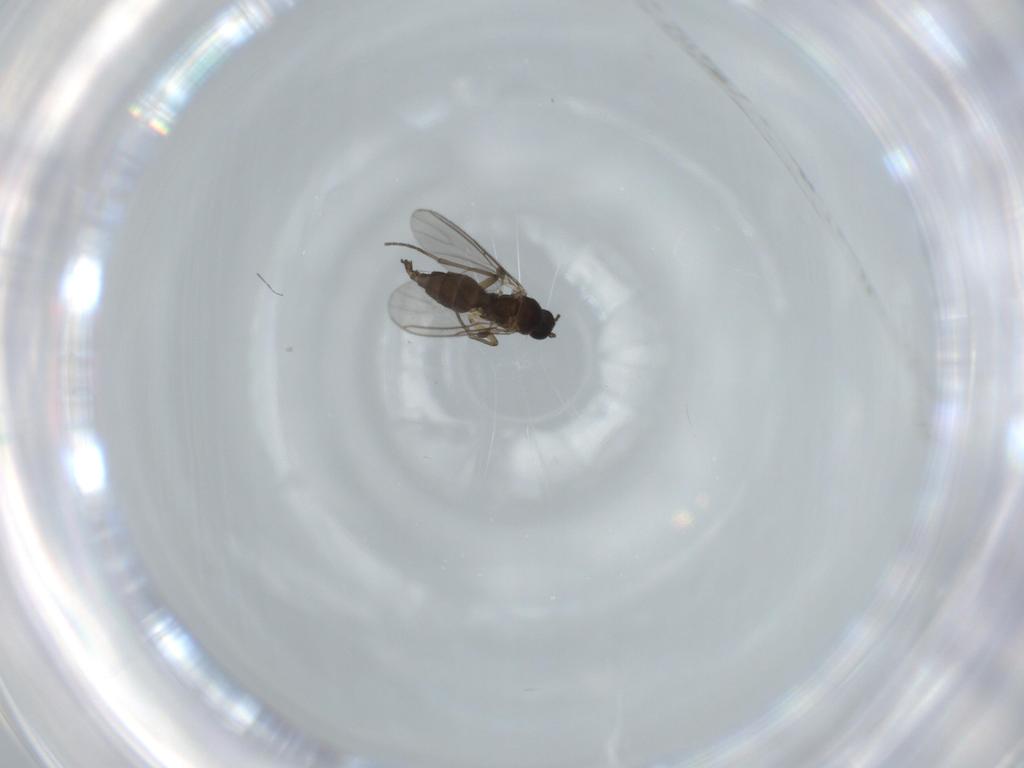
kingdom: Animalia
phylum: Arthropoda
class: Insecta
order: Diptera
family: Sciaridae
